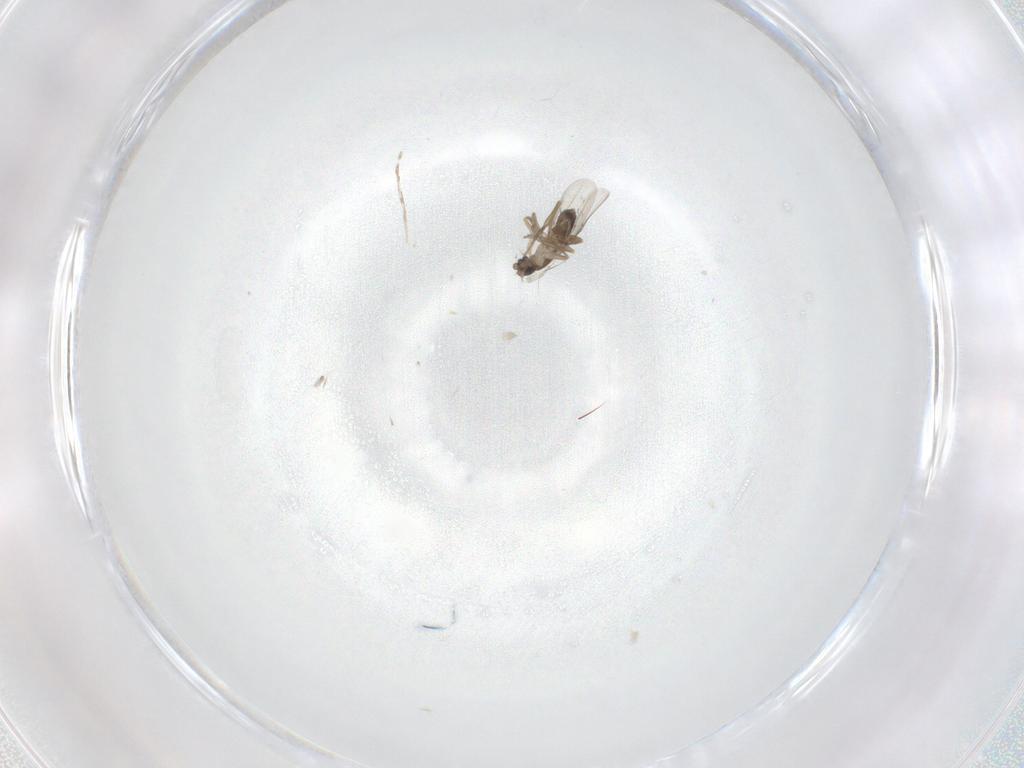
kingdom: Animalia
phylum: Arthropoda
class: Insecta
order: Diptera
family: Phoridae
